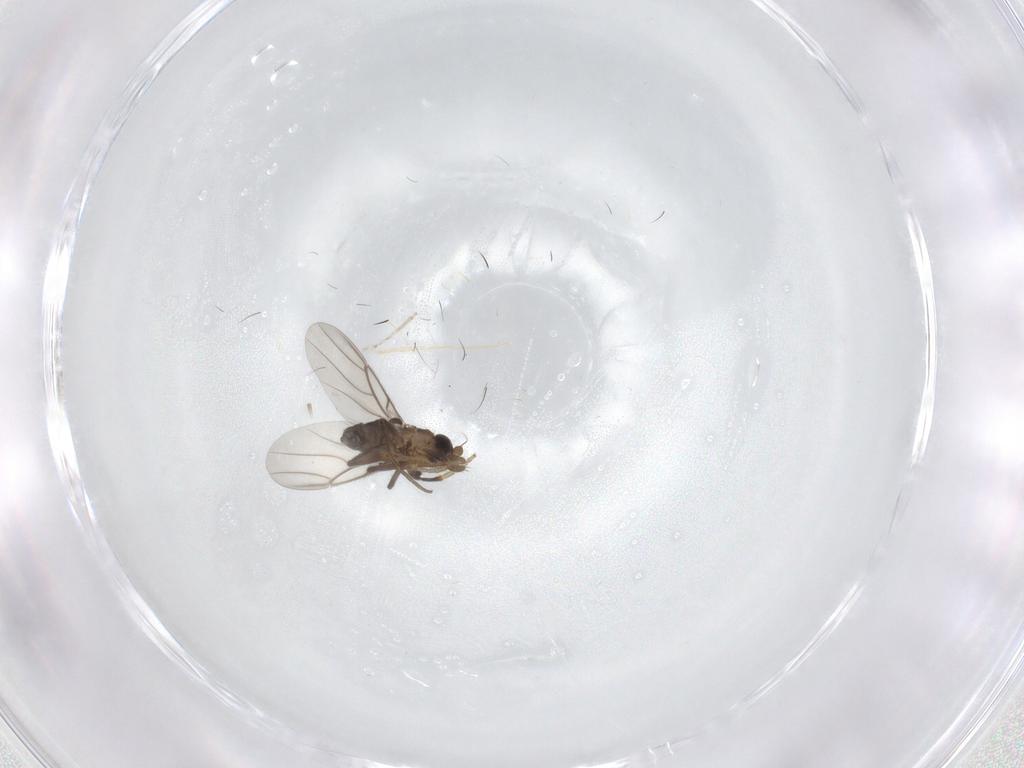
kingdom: Animalia
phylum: Arthropoda
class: Insecta
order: Diptera
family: Phoridae
